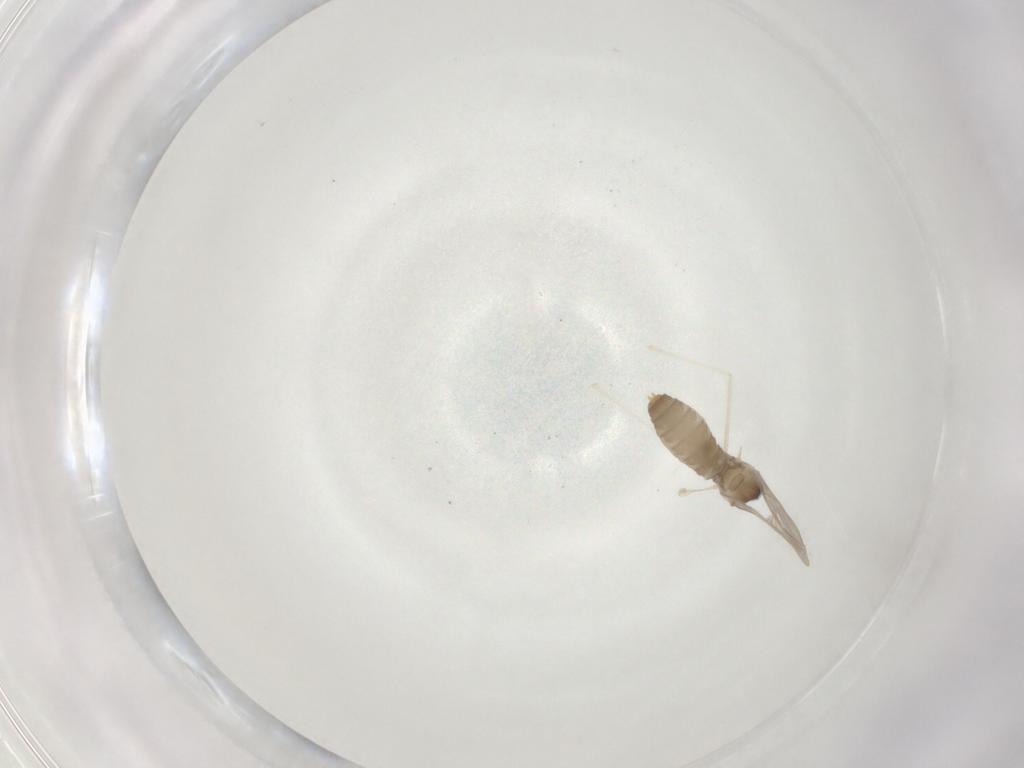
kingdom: Animalia
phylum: Arthropoda
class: Insecta
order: Diptera
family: Cecidomyiidae
